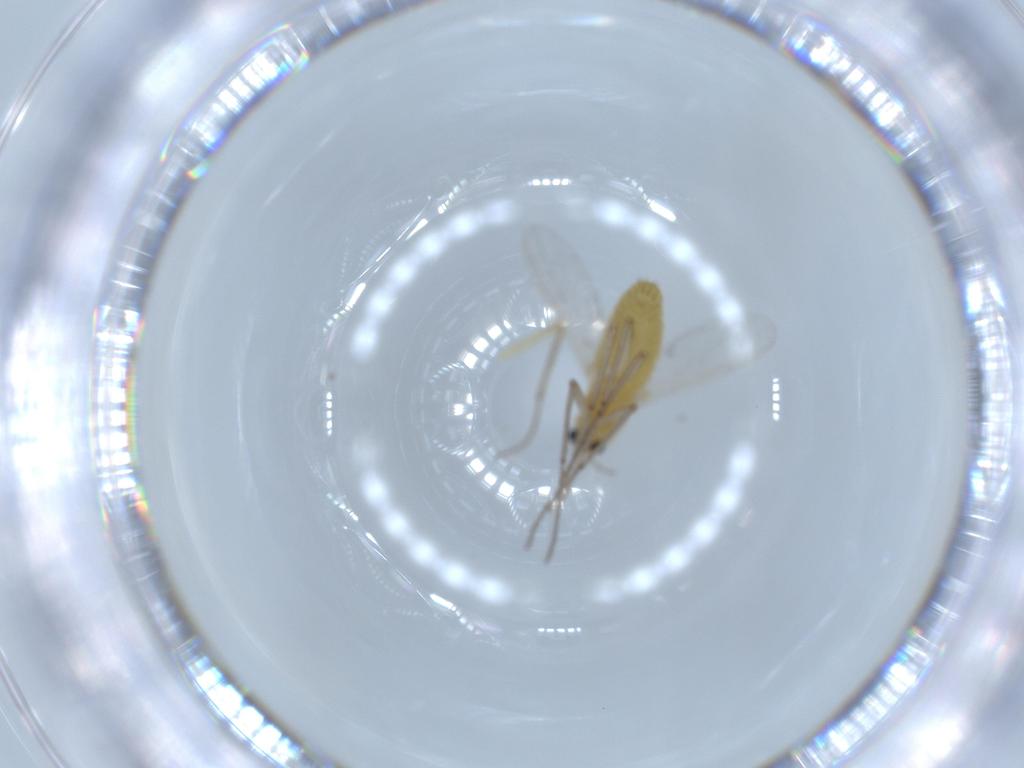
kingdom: Animalia
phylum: Arthropoda
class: Insecta
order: Diptera
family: Chironomidae
